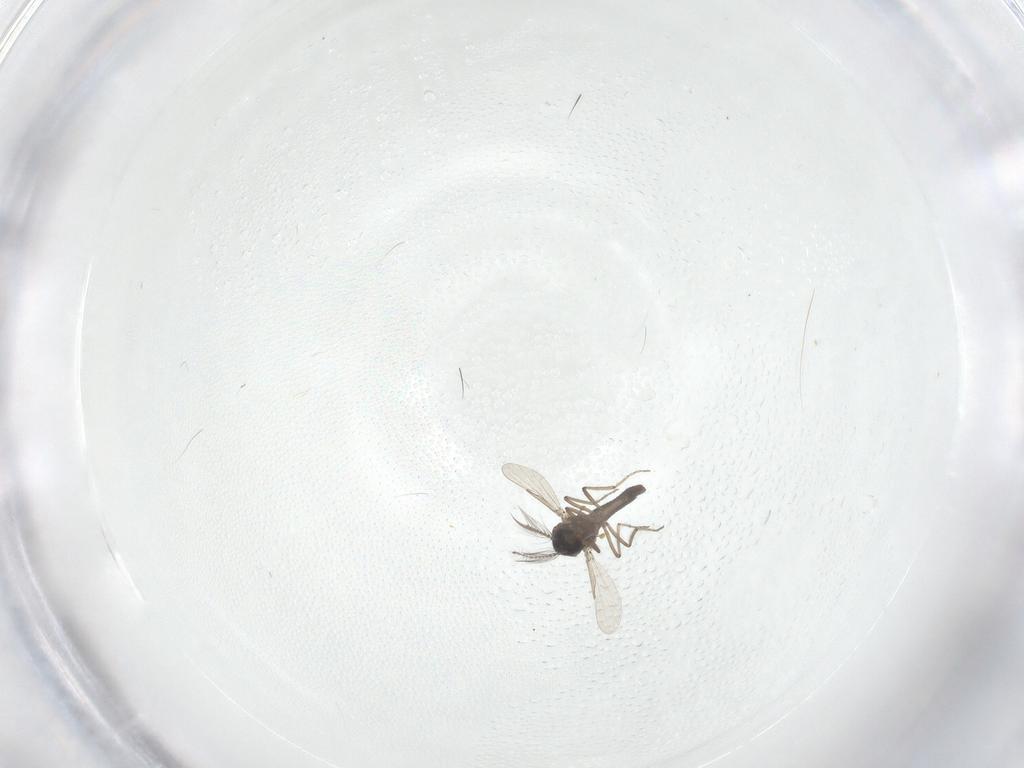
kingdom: Animalia
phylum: Arthropoda
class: Insecta
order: Diptera
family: Ceratopogonidae
